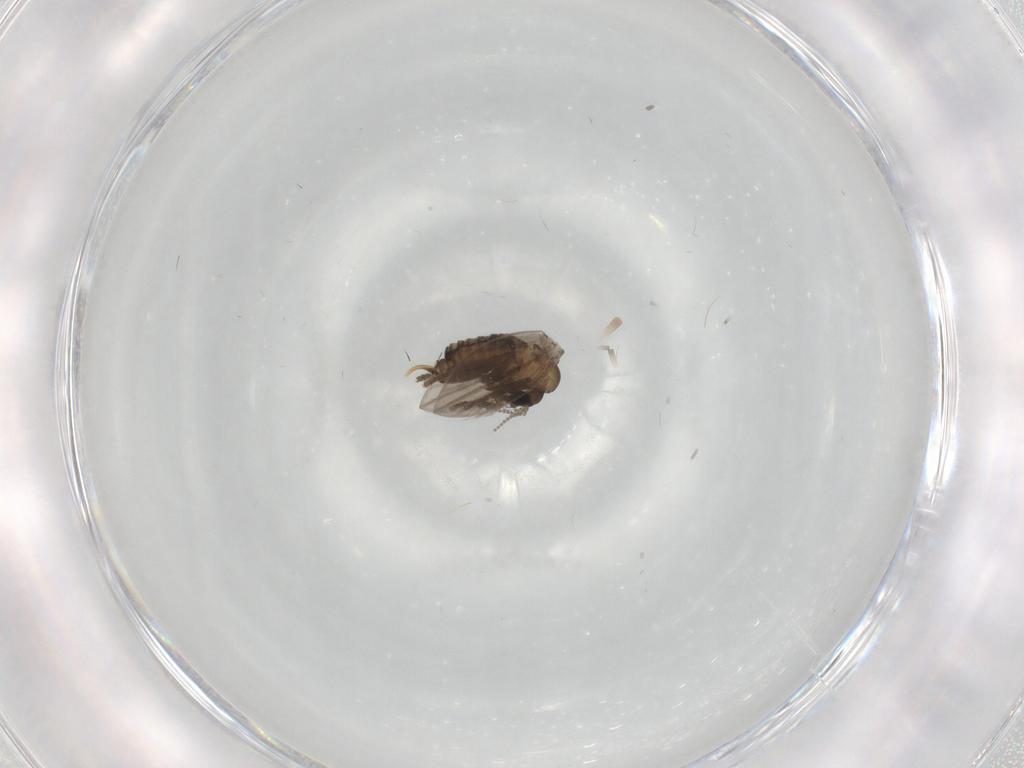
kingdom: Animalia
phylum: Arthropoda
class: Insecta
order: Diptera
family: Psychodidae
